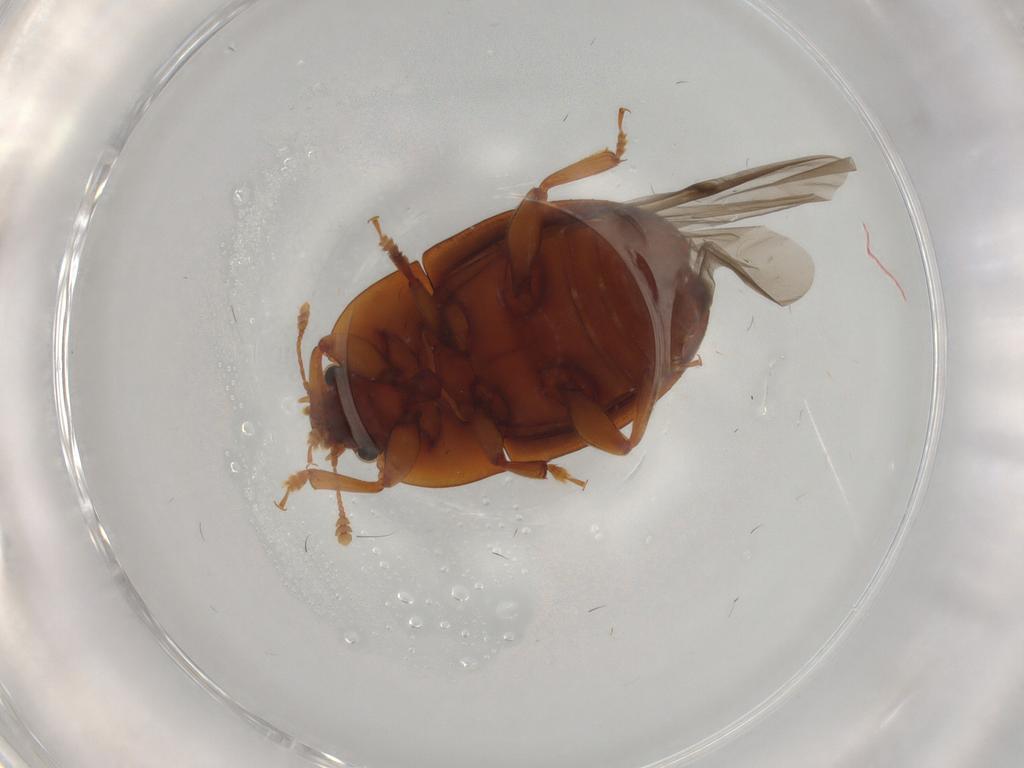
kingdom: Animalia
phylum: Arthropoda
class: Insecta
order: Coleoptera
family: Nitidulidae
